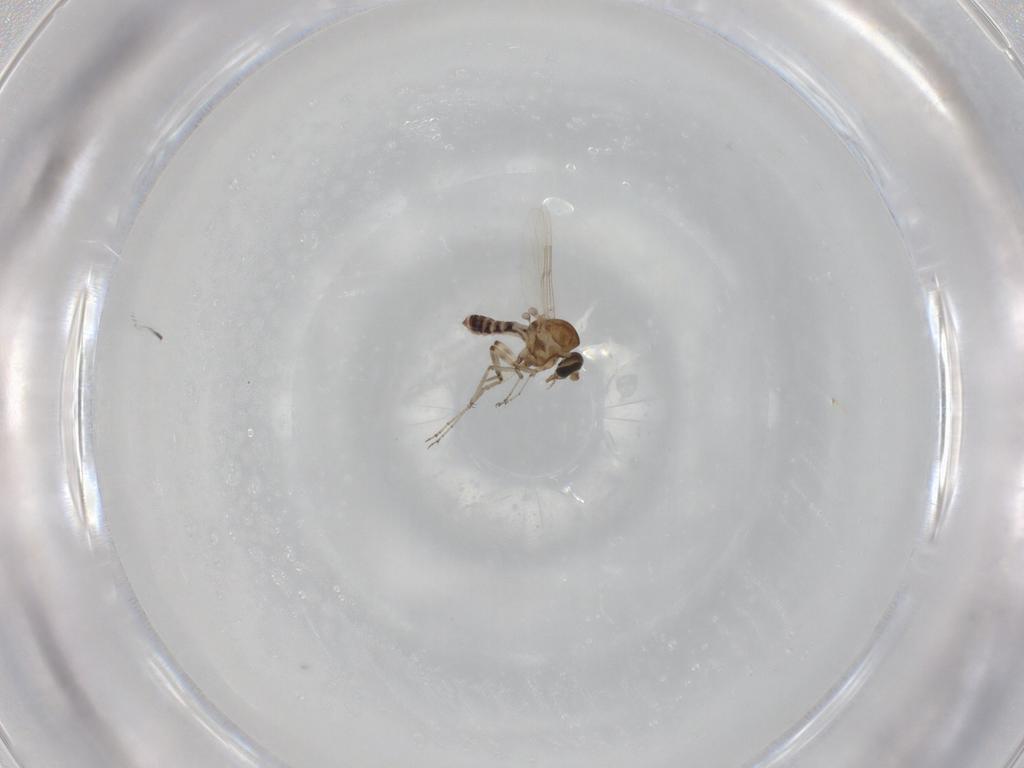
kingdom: Animalia
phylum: Arthropoda
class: Insecta
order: Diptera
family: Ceratopogonidae
